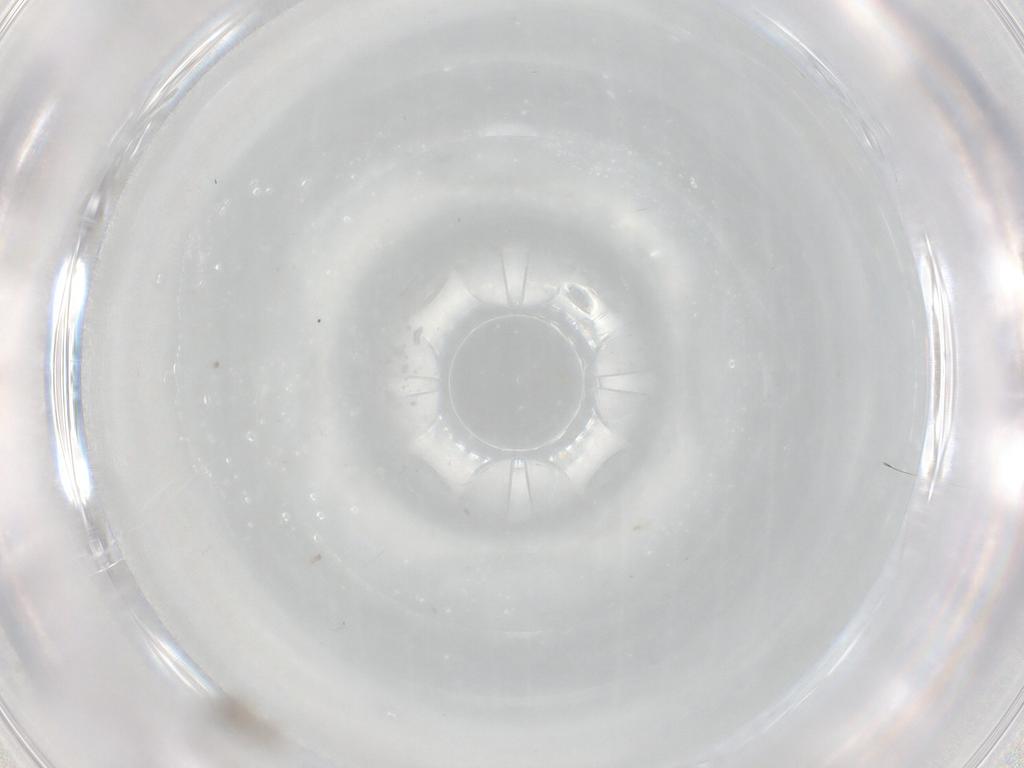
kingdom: Animalia
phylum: Arthropoda
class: Insecta
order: Diptera
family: Cecidomyiidae
